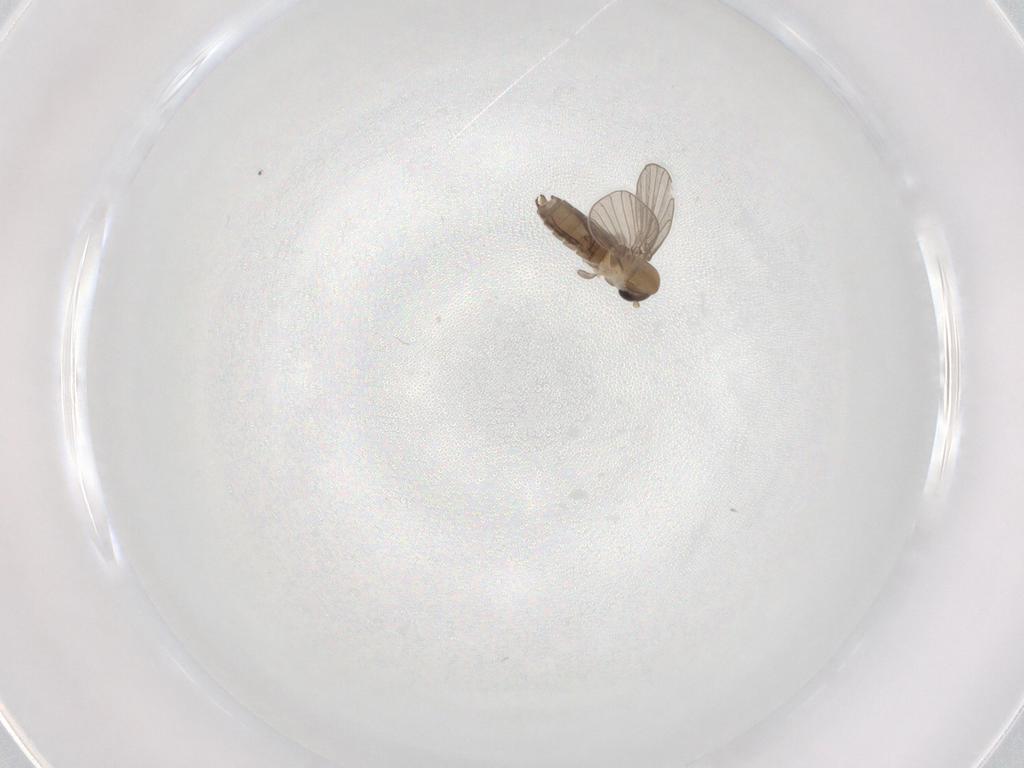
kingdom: Animalia
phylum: Arthropoda
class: Insecta
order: Diptera
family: Psychodidae
